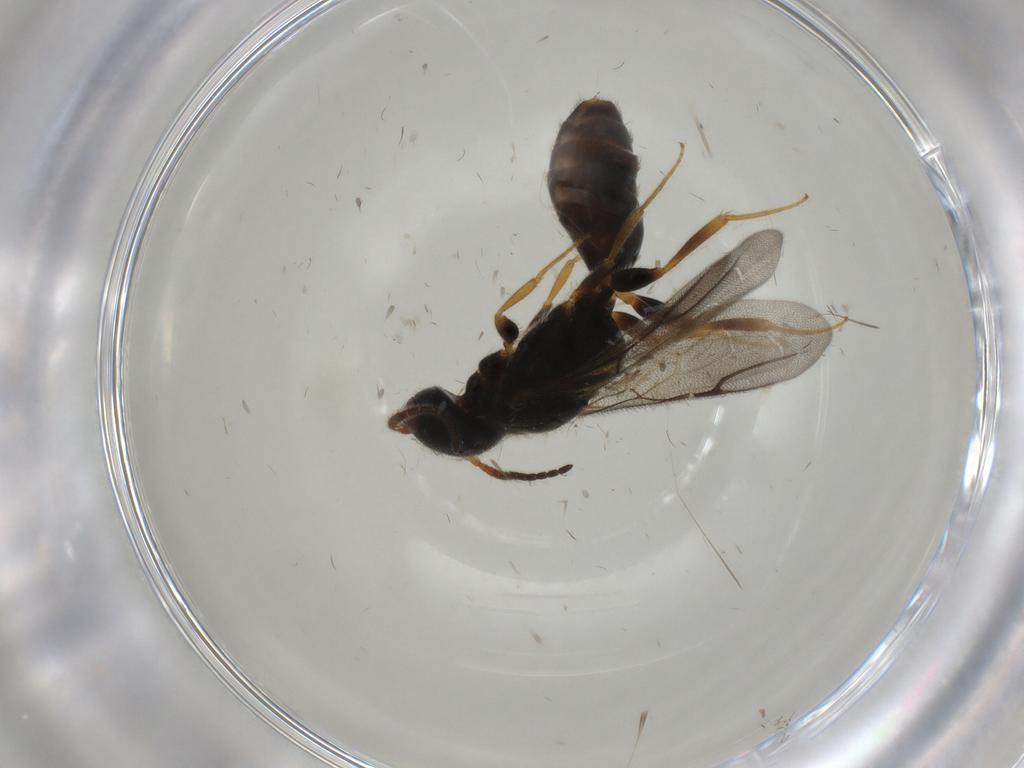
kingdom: Animalia
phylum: Arthropoda
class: Insecta
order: Hymenoptera
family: Bethylidae
